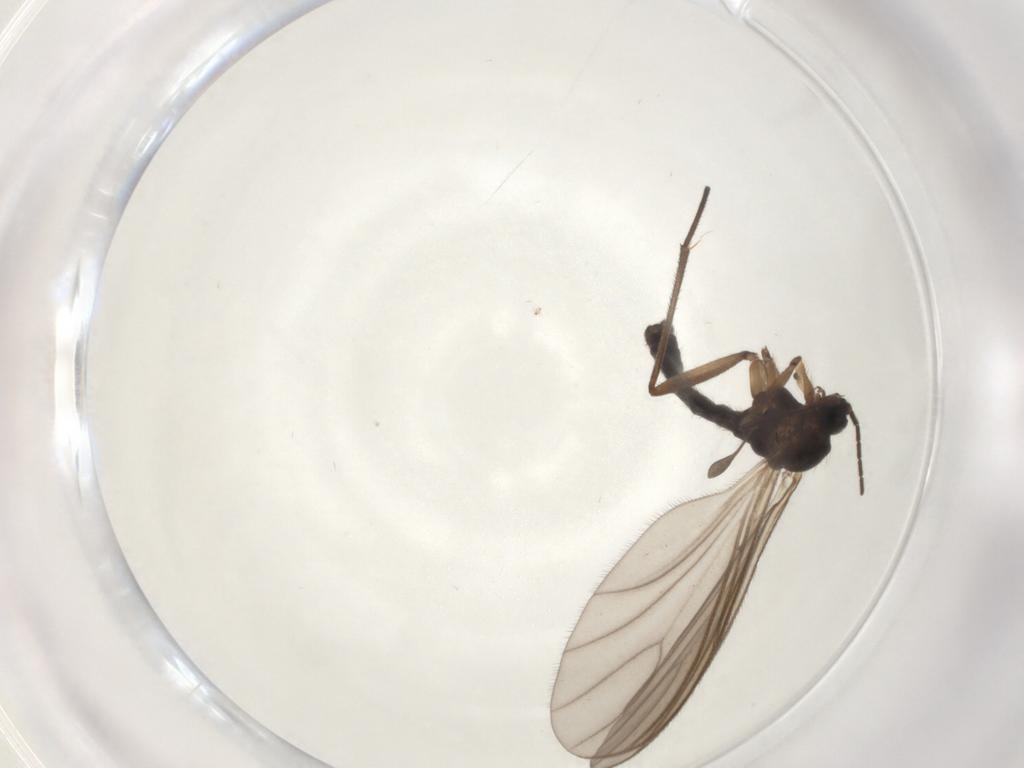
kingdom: Animalia
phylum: Arthropoda
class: Insecta
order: Diptera
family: Sciaridae
